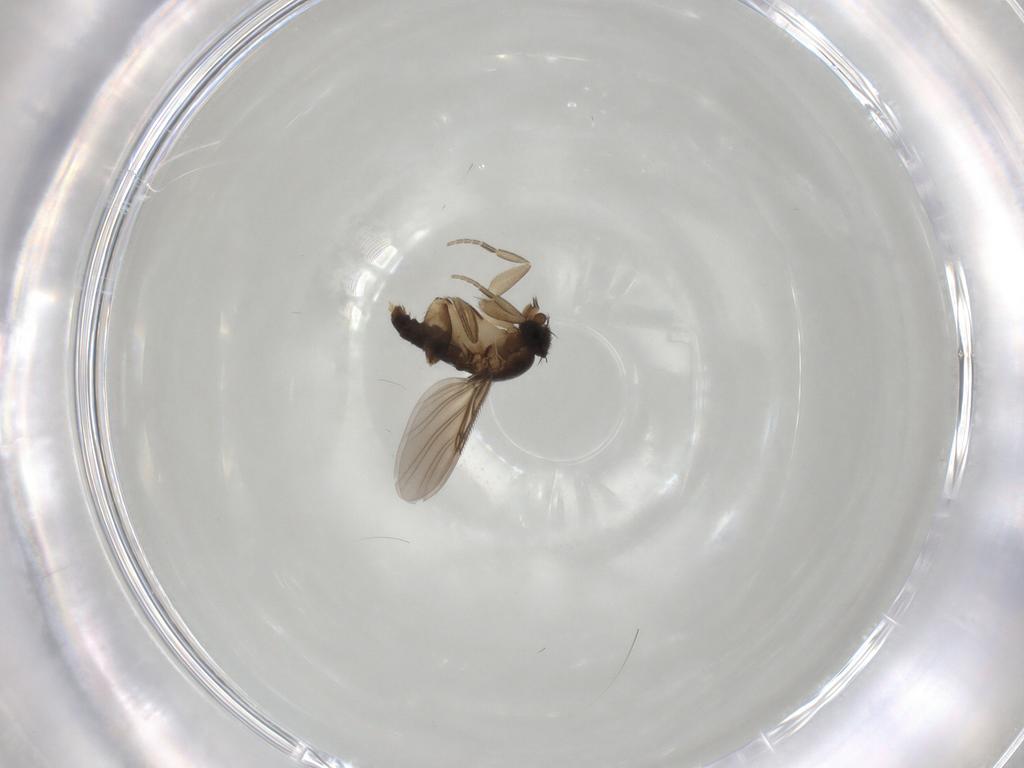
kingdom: Animalia
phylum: Arthropoda
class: Insecta
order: Diptera
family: Phoridae
